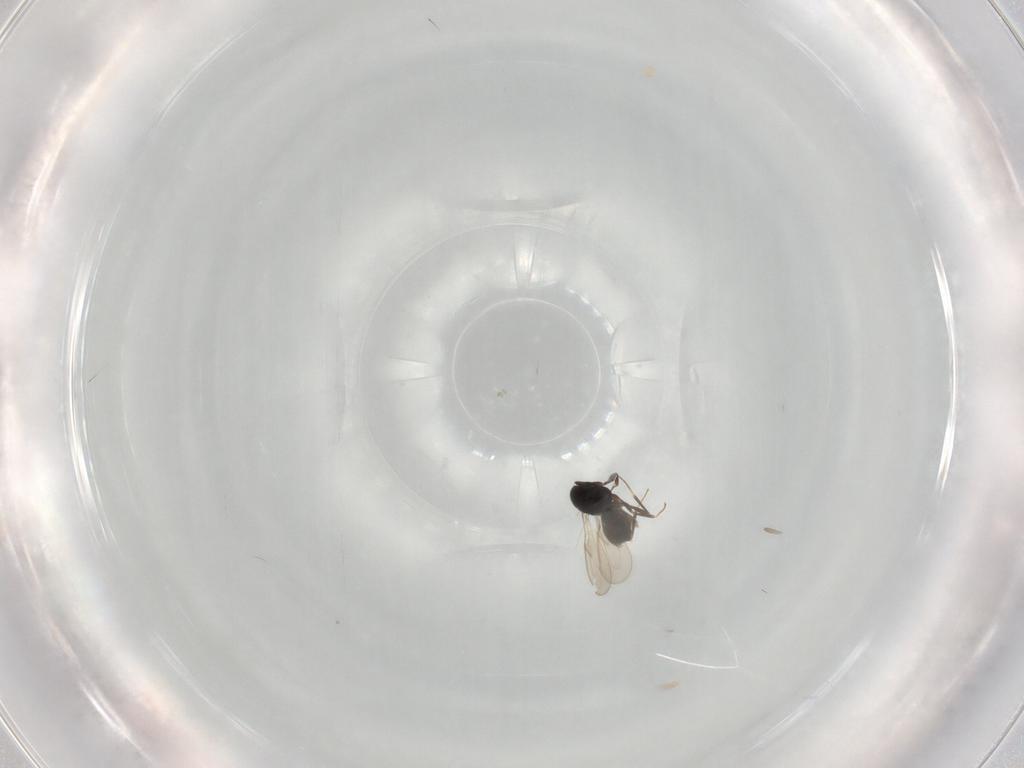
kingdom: Animalia
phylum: Arthropoda
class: Insecta
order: Hymenoptera
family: Scelionidae
